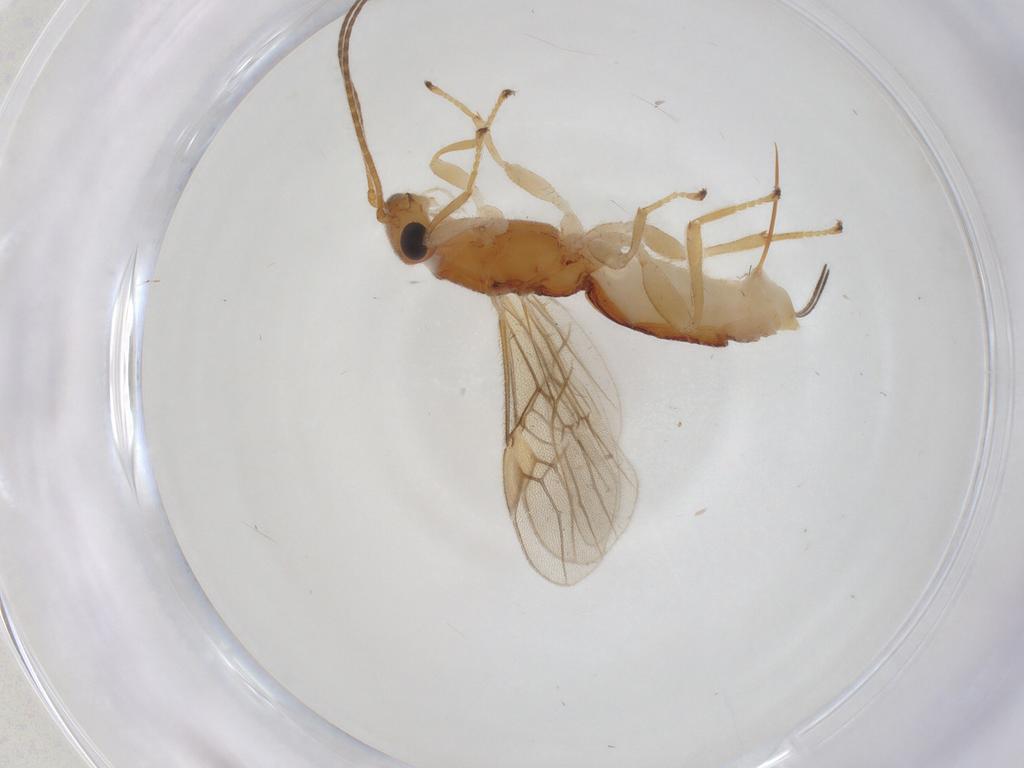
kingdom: Animalia
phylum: Arthropoda
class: Insecta
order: Hymenoptera
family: Braconidae
